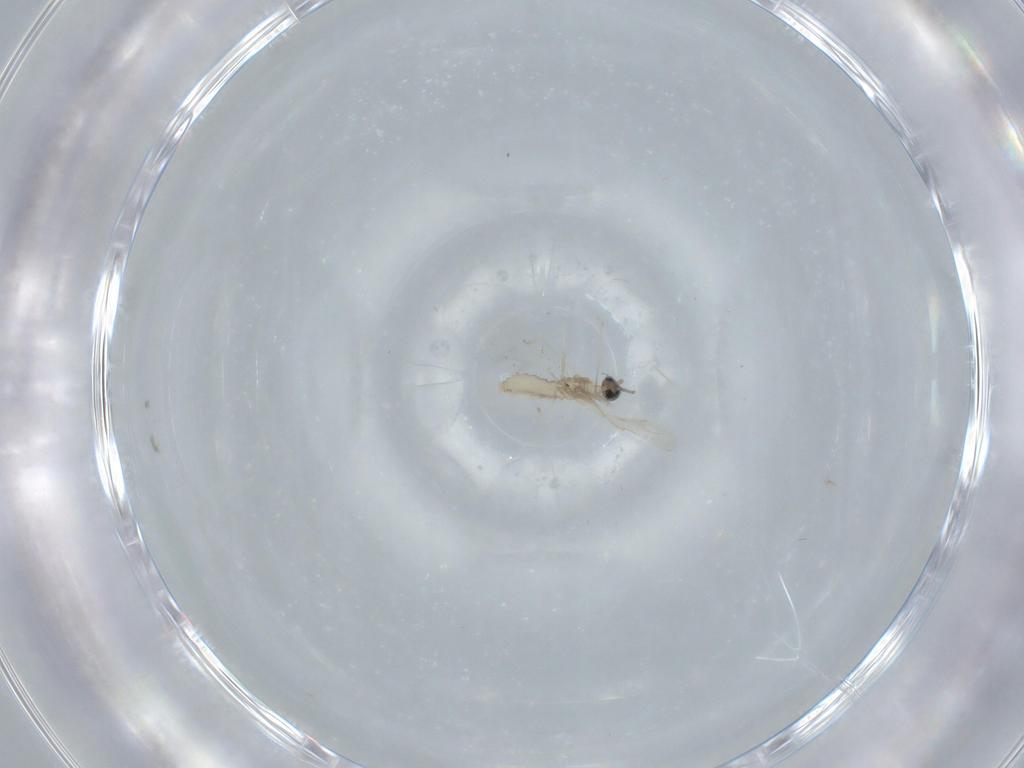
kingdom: Animalia
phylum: Arthropoda
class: Insecta
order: Diptera
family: Cecidomyiidae
